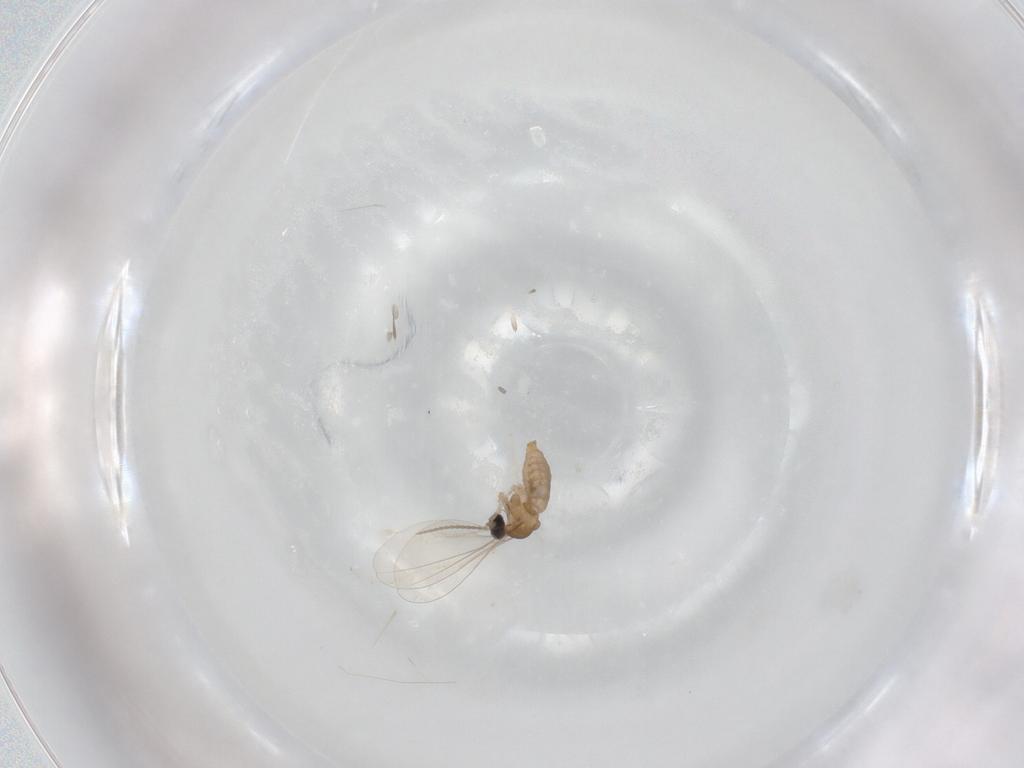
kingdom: Animalia
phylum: Arthropoda
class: Insecta
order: Diptera
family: Cecidomyiidae
